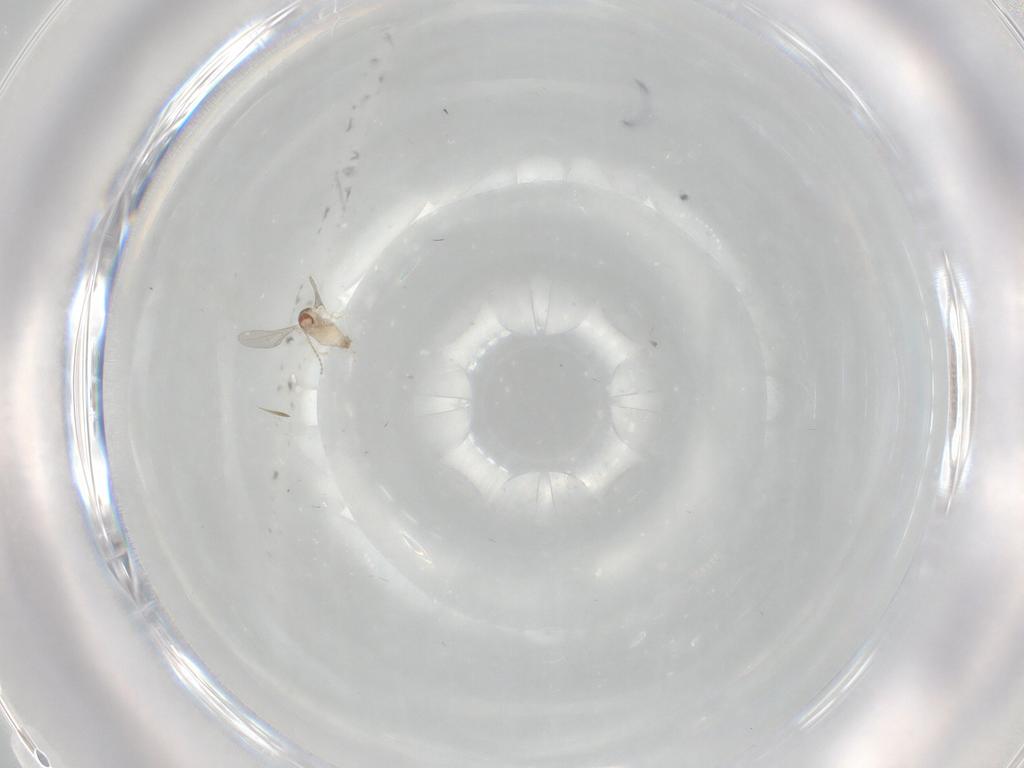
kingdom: Animalia
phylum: Arthropoda
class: Insecta
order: Diptera
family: Cecidomyiidae
